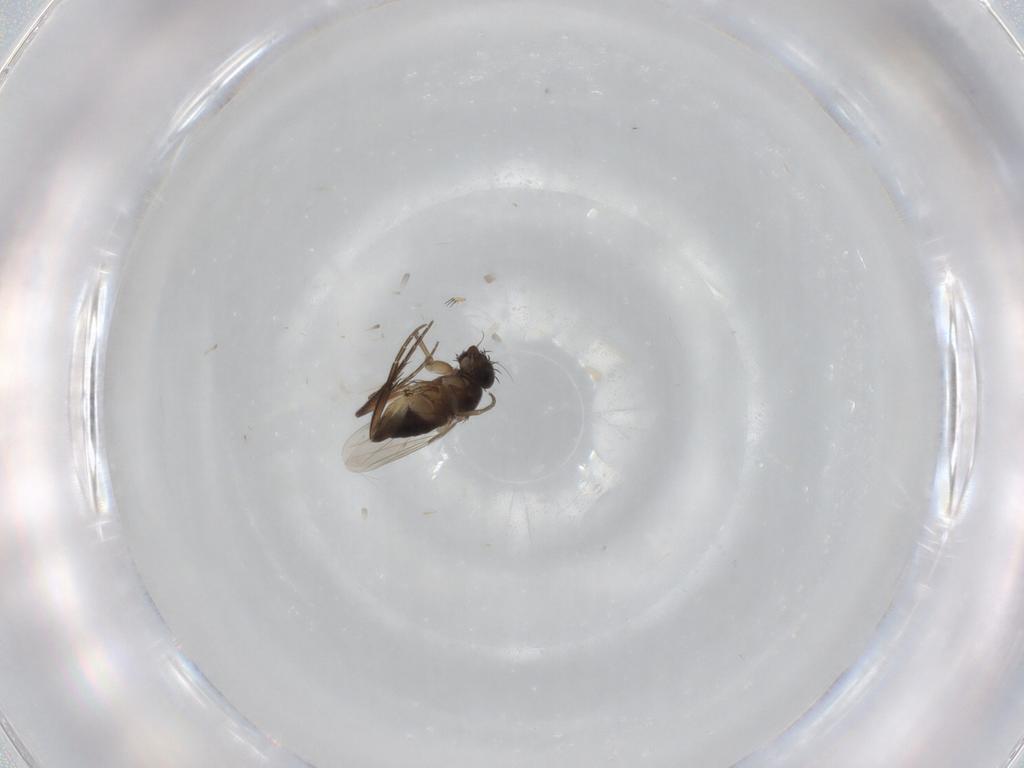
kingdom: Animalia
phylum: Arthropoda
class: Insecta
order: Diptera
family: Phoridae
